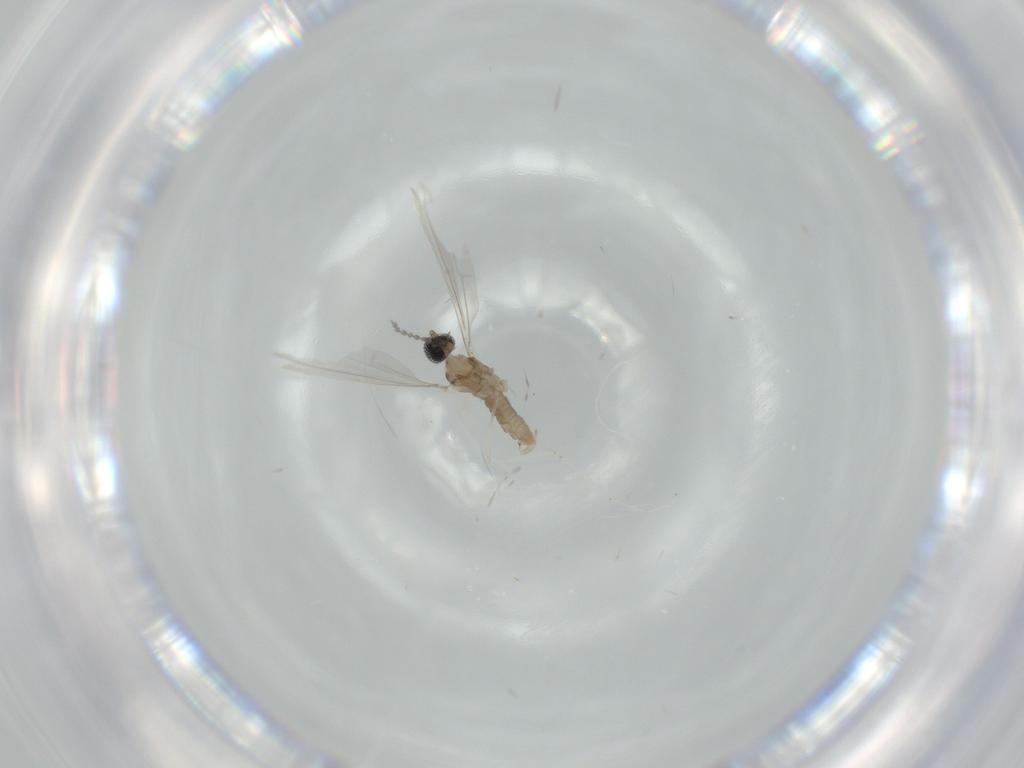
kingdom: Animalia
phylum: Arthropoda
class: Insecta
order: Diptera
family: Cecidomyiidae
